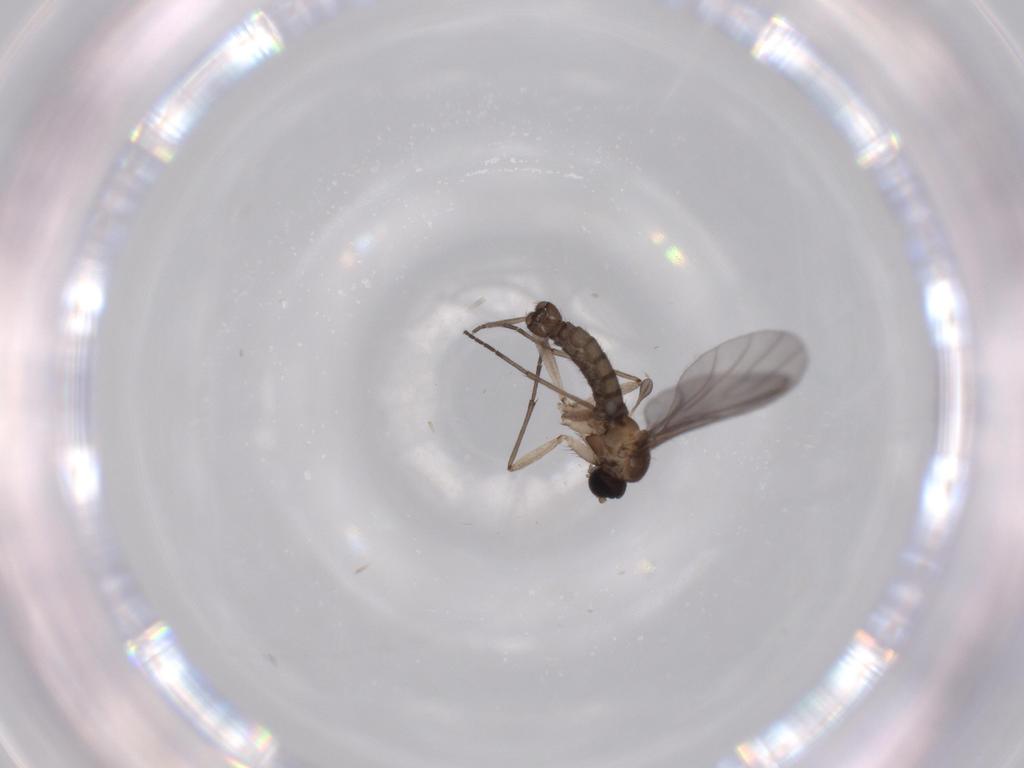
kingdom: Animalia
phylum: Arthropoda
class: Insecta
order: Diptera
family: Sciaridae
